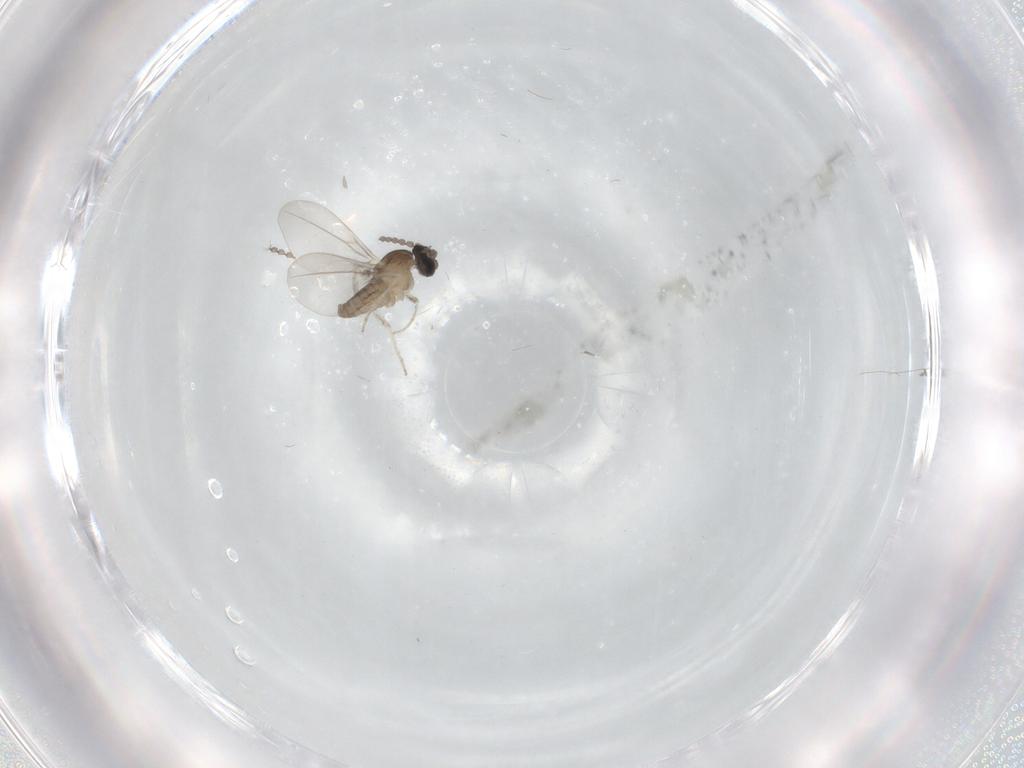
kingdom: Animalia
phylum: Arthropoda
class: Insecta
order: Diptera
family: Cecidomyiidae
